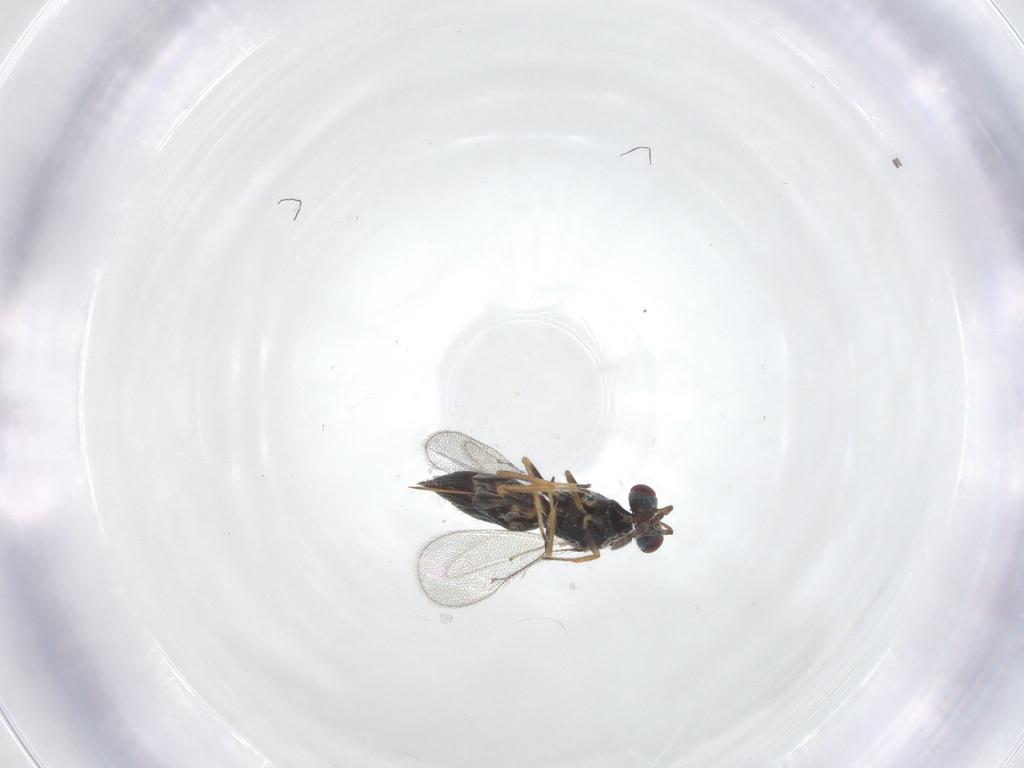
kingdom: Animalia
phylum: Arthropoda
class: Insecta
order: Hymenoptera
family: Eulophidae
